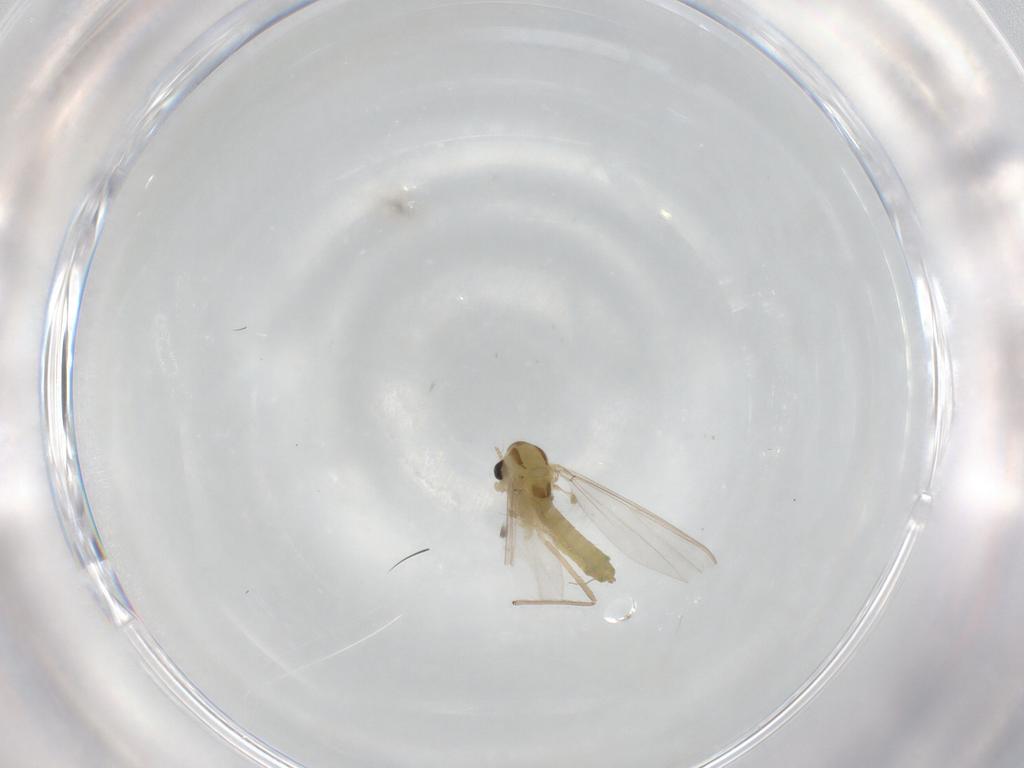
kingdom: Animalia
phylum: Arthropoda
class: Insecta
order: Diptera
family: Chironomidae
